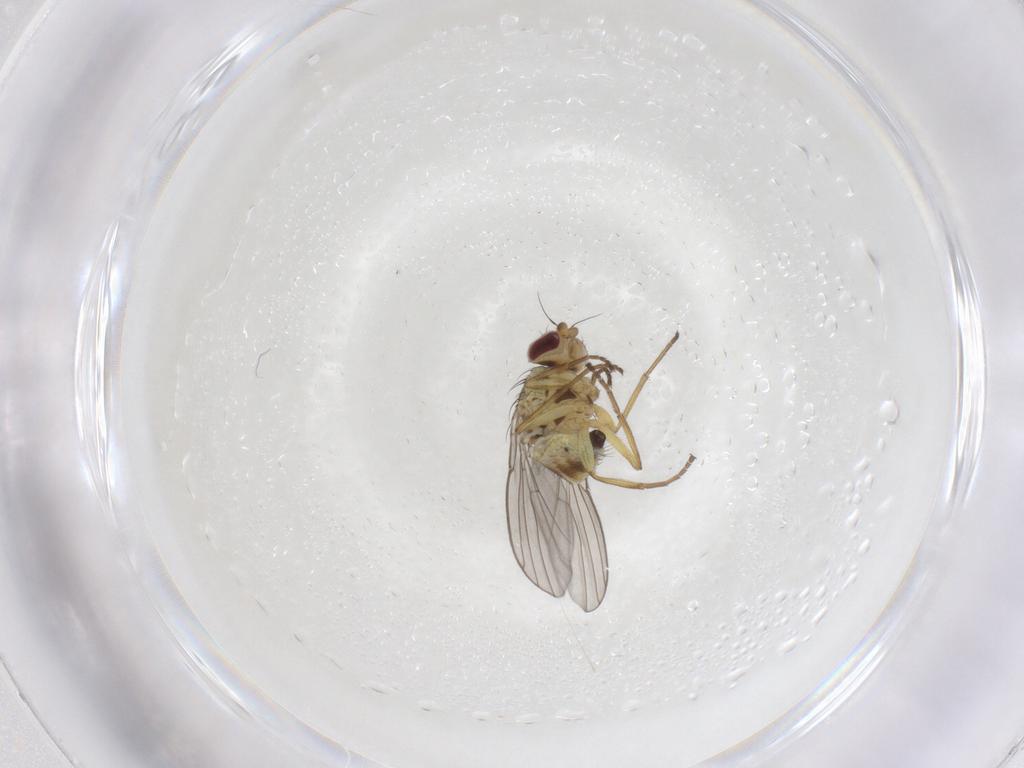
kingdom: Animalia
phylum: Arthropoda
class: Insecta
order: Diptera
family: Agromyzidae
